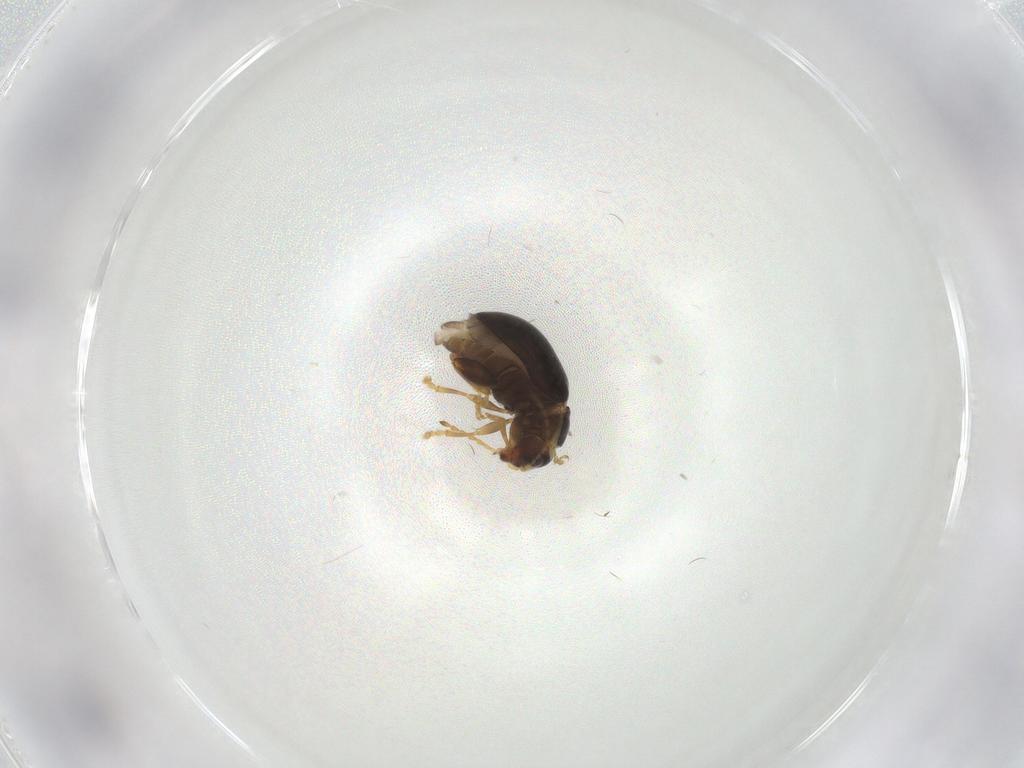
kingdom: Animalia
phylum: Arthropoda
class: Insecta
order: Coleoptera
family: Chrysomelidae
